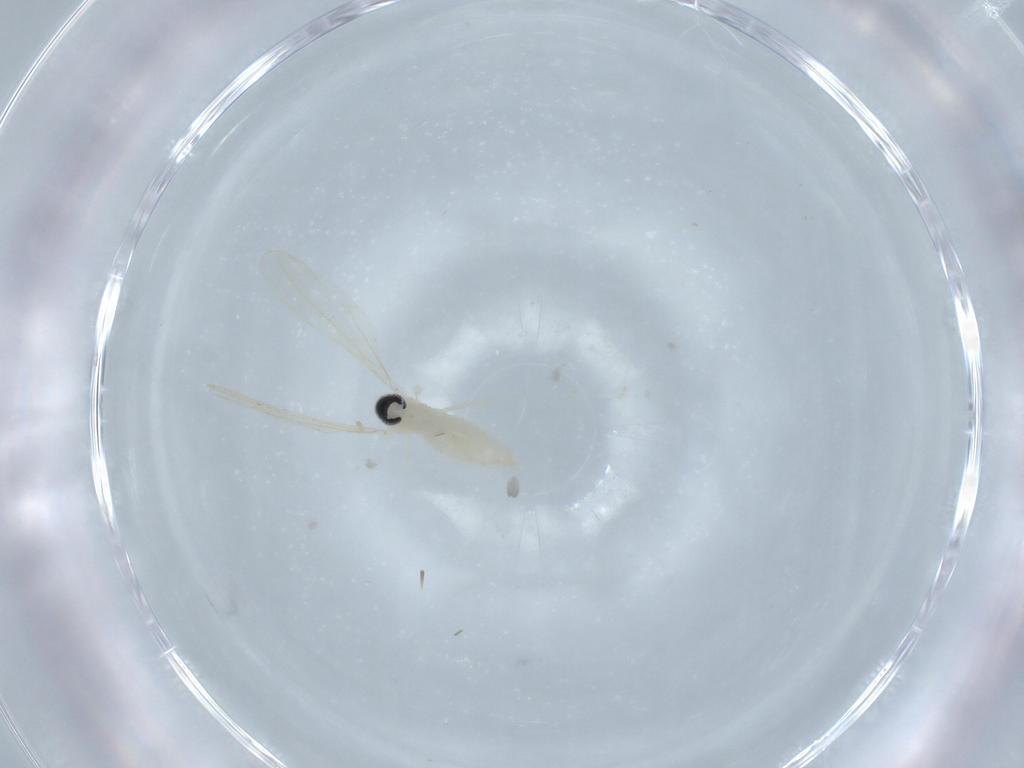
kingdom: Animalia
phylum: Arthropoda
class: Insecta
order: Diptera
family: Cecidomyiidae
